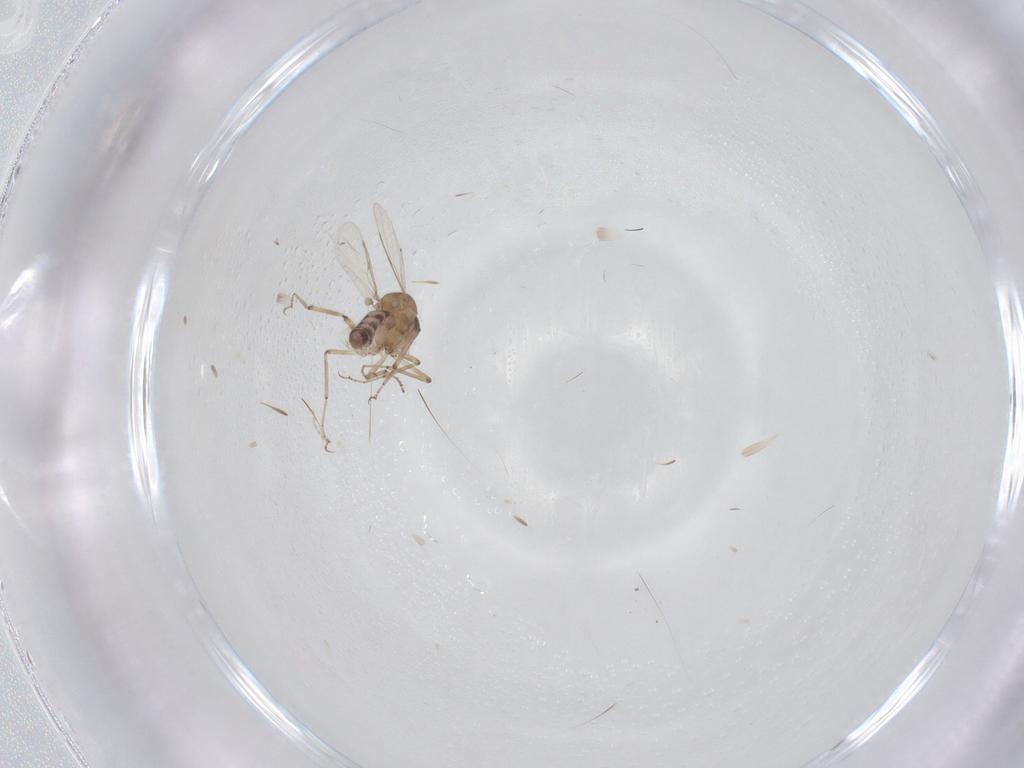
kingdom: Animalia
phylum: Arthropoda
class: Insecta
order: Diptera
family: Ceratopogonidae
